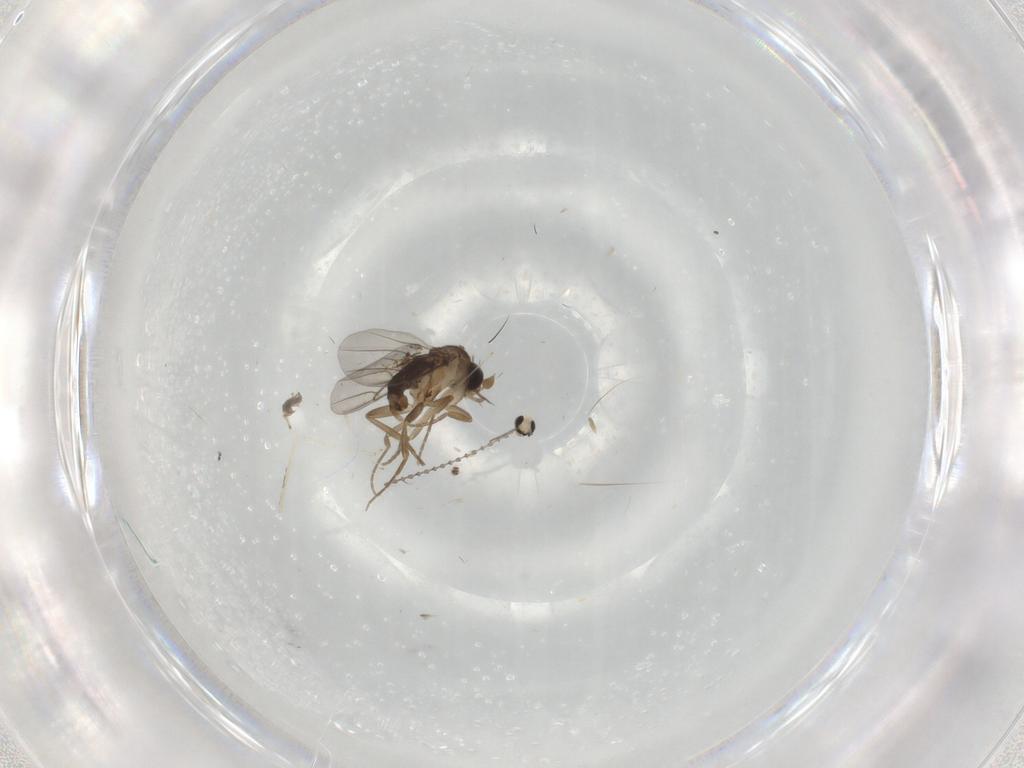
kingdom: Animalia
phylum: Arthropoda
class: Insecta
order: Diptera
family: Phoridae
